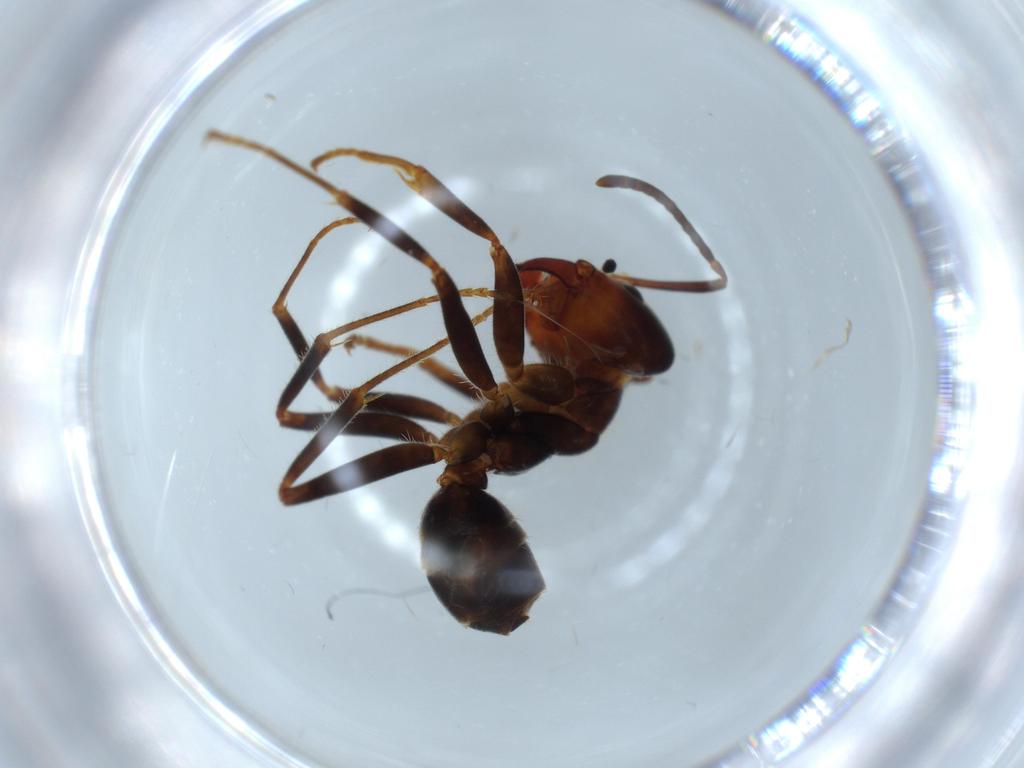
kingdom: Animalia
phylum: Arthropoda
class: Insecta
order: Hymenoptera
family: Formicidae
